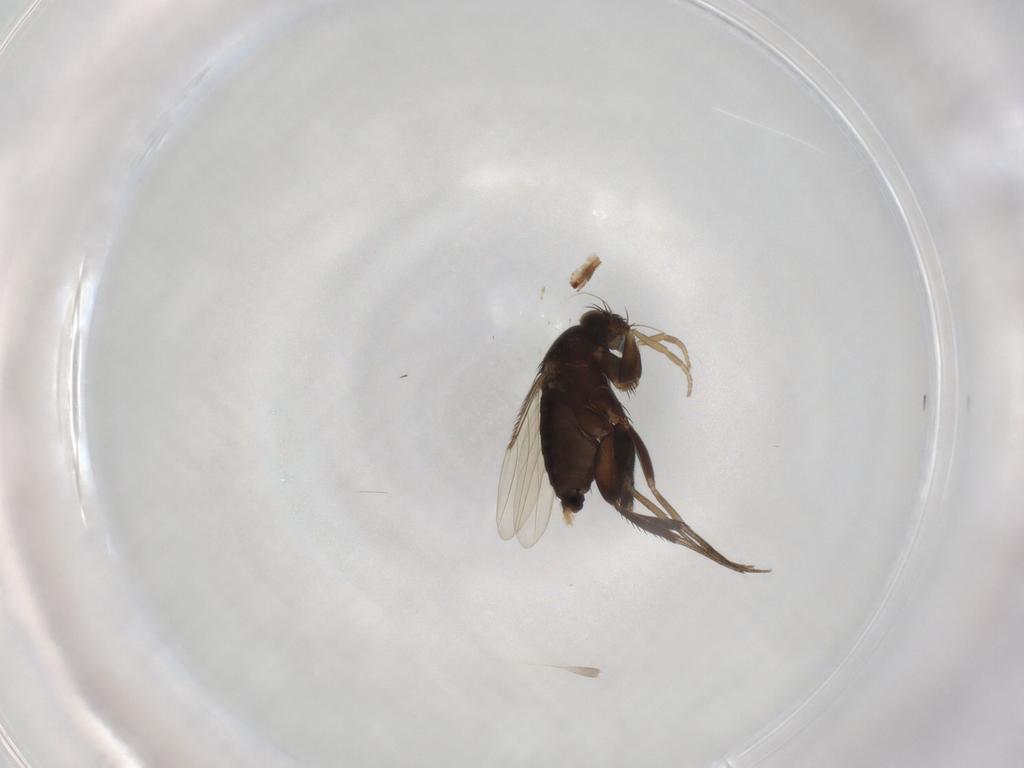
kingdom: Animalia
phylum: Arthropoda
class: Insecta
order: Diptera
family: Phoridae
